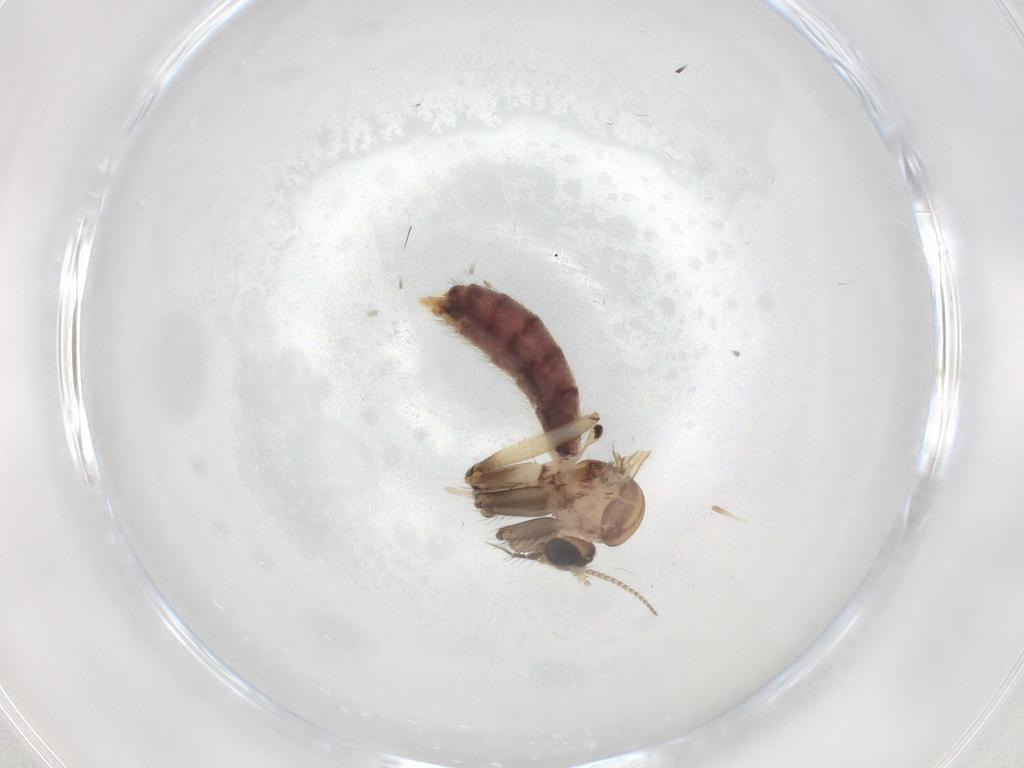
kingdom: Animalia
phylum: Arthropoda
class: Insecta
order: Diptera
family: Mycetophilidae
